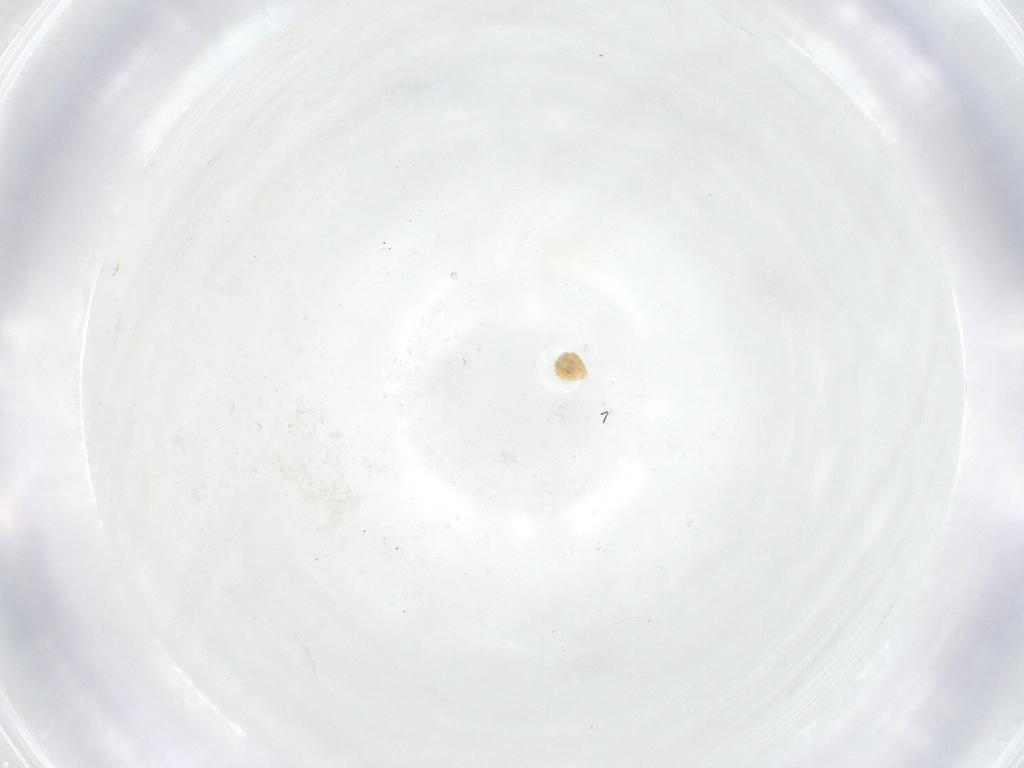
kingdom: Animalia
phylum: Arthropoda
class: Insecta
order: Diptera
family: Fergusoninidae
